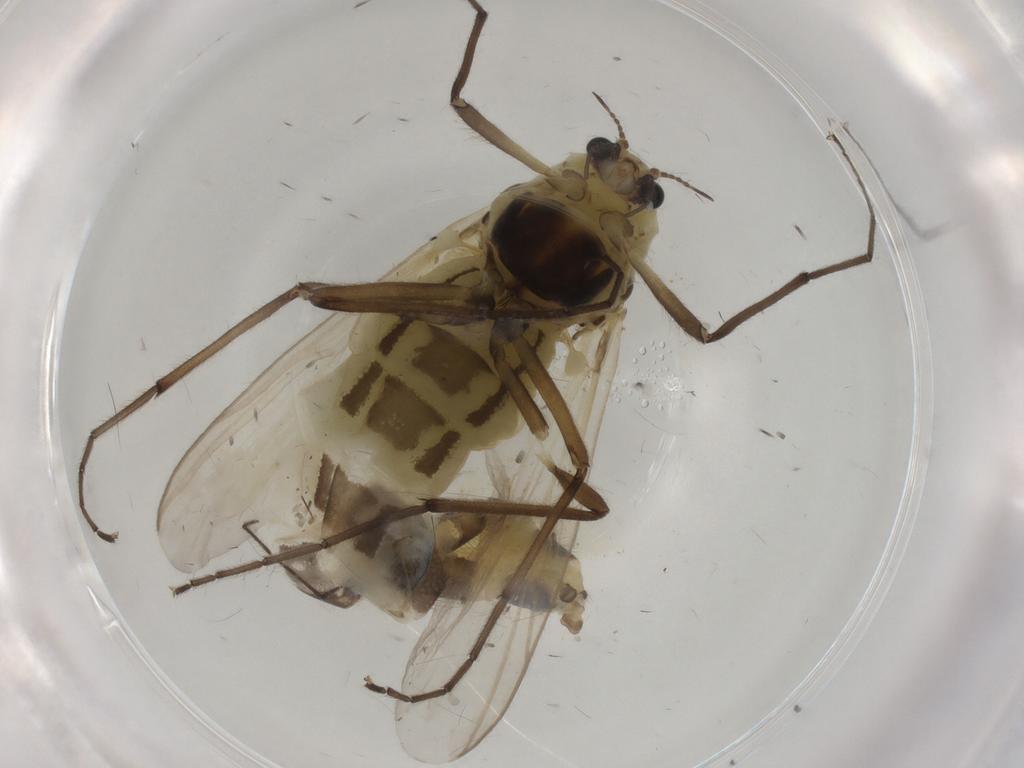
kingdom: Animalia
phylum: Arthropoda
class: Insecta
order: Diptera
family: Chironomidae
